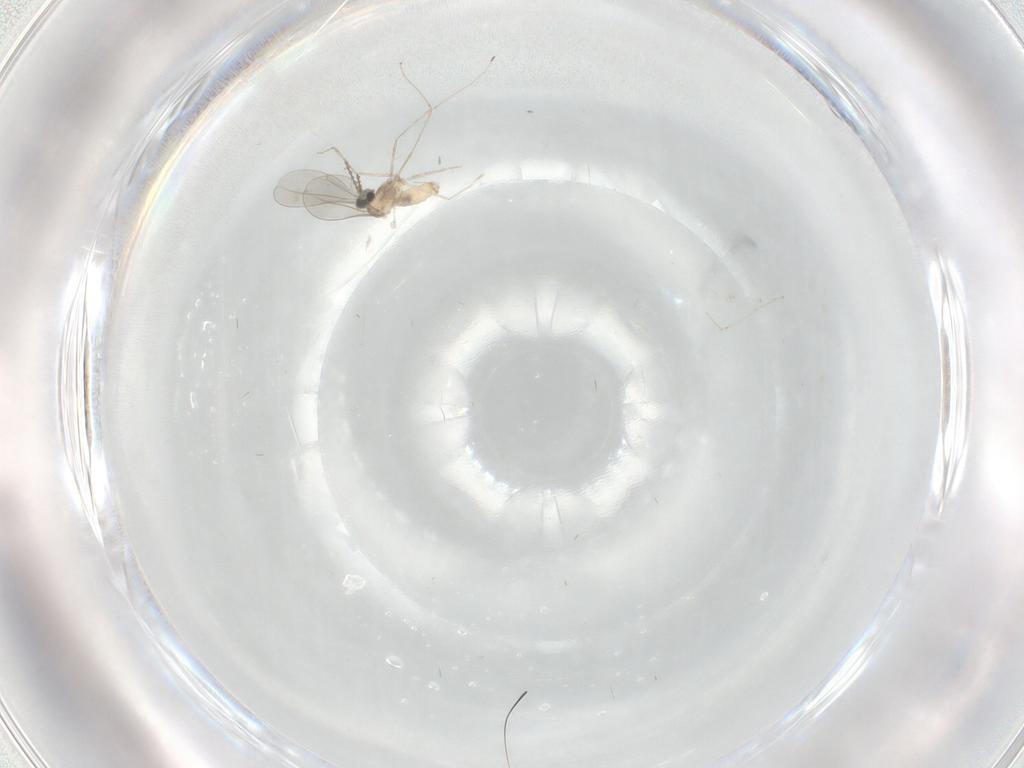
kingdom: Animalia
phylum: Arthropoda
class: Insecta
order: Diptera
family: Cecidomyiidae
